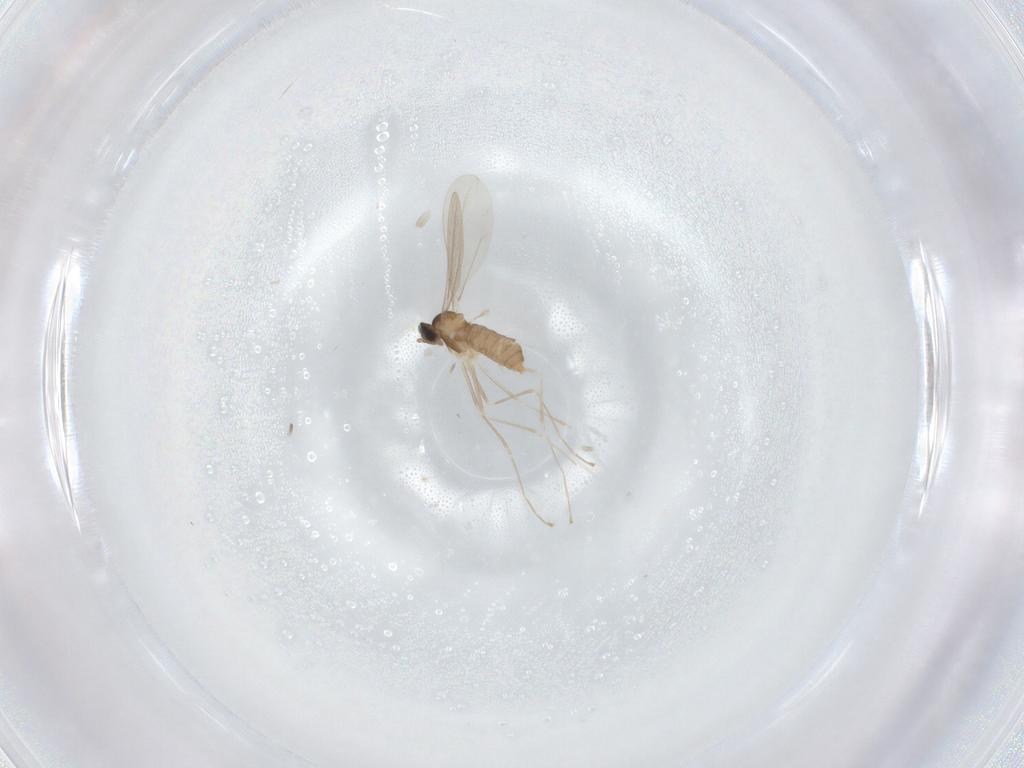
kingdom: Animalia
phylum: Arthropoda
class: Insecta
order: Diptera
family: Cecidomyiidae
